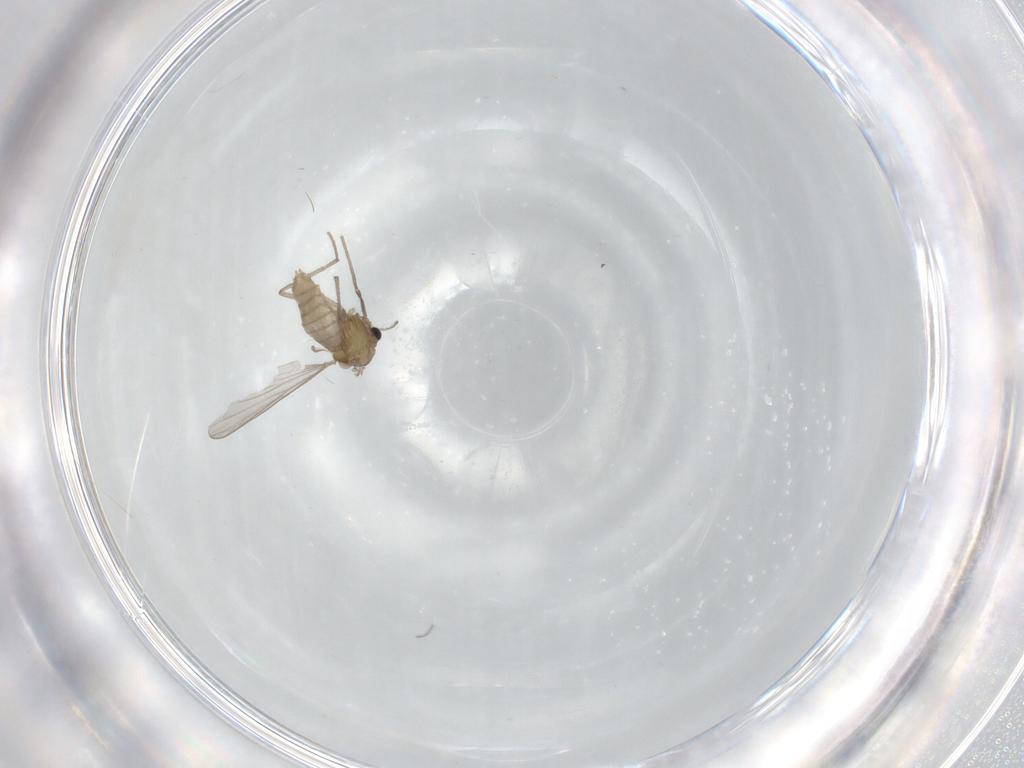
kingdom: Animalia
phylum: Arthropoda
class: Insecta
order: Diptera
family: Chironomidae
